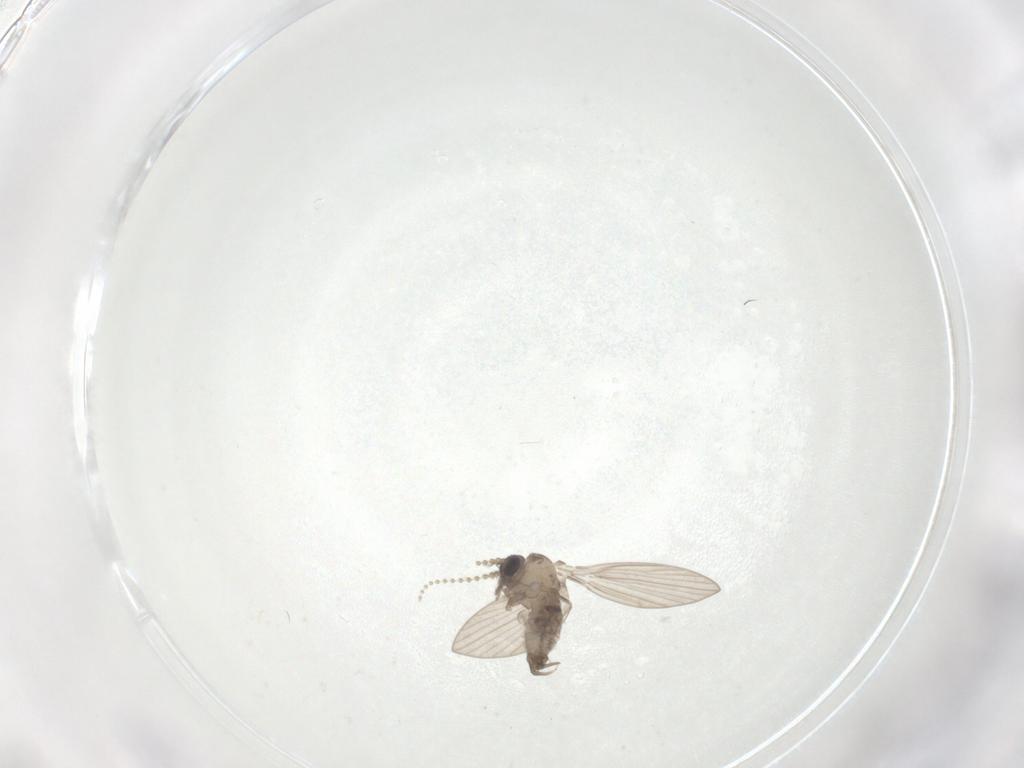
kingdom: Animalia
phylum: Arthropoda
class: Insecta
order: Diptera
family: Psychodidae
